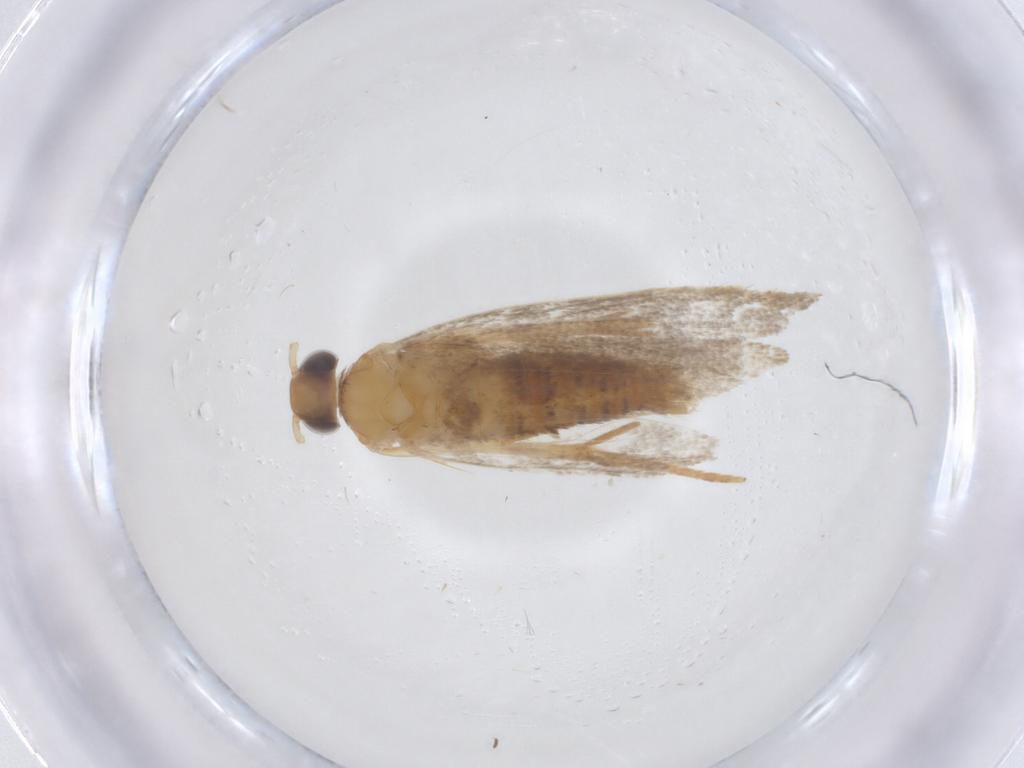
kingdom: Animalia
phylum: Arthropoda
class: Insecta
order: Lepidoptera
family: Oecophoridae
